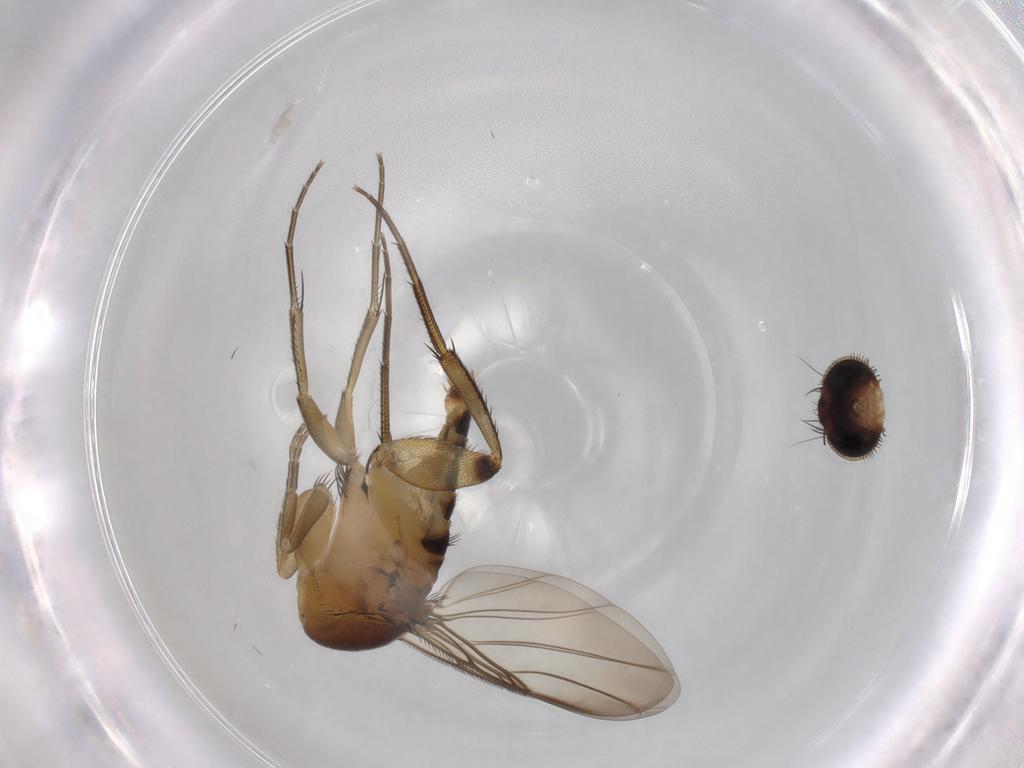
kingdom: Animalia
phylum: Arthropoda
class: Insecta
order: Diptera
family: Phoridae
